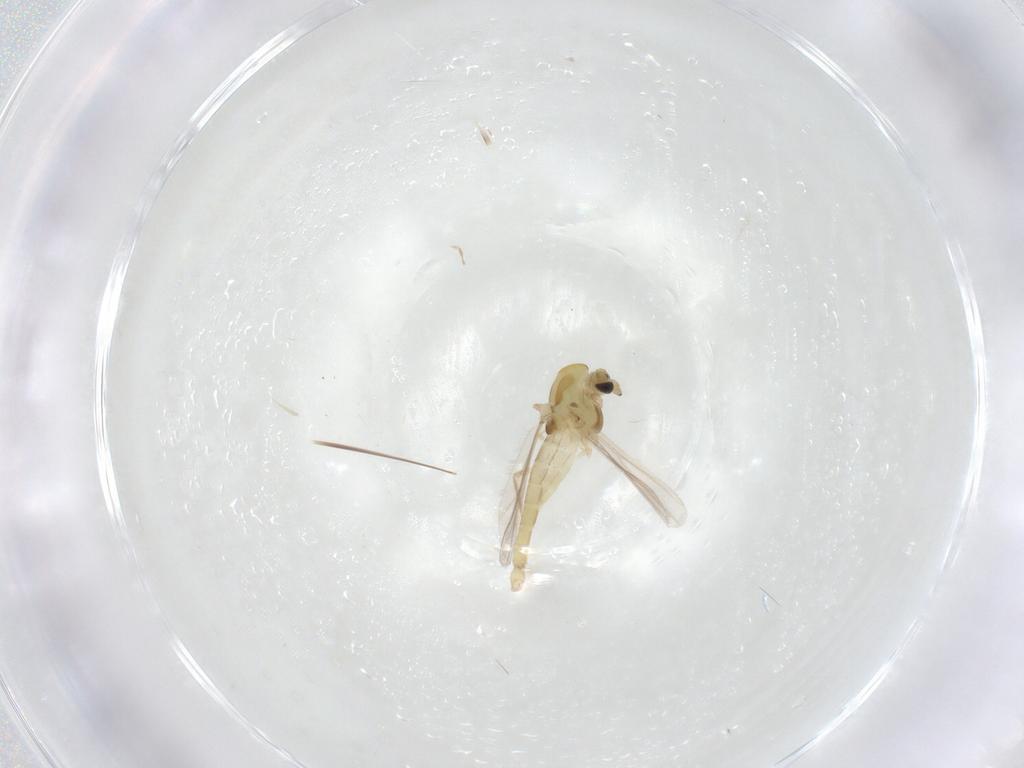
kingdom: Animalia
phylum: Arthropoda
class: Insecta
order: Diptera
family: Chironomidae
